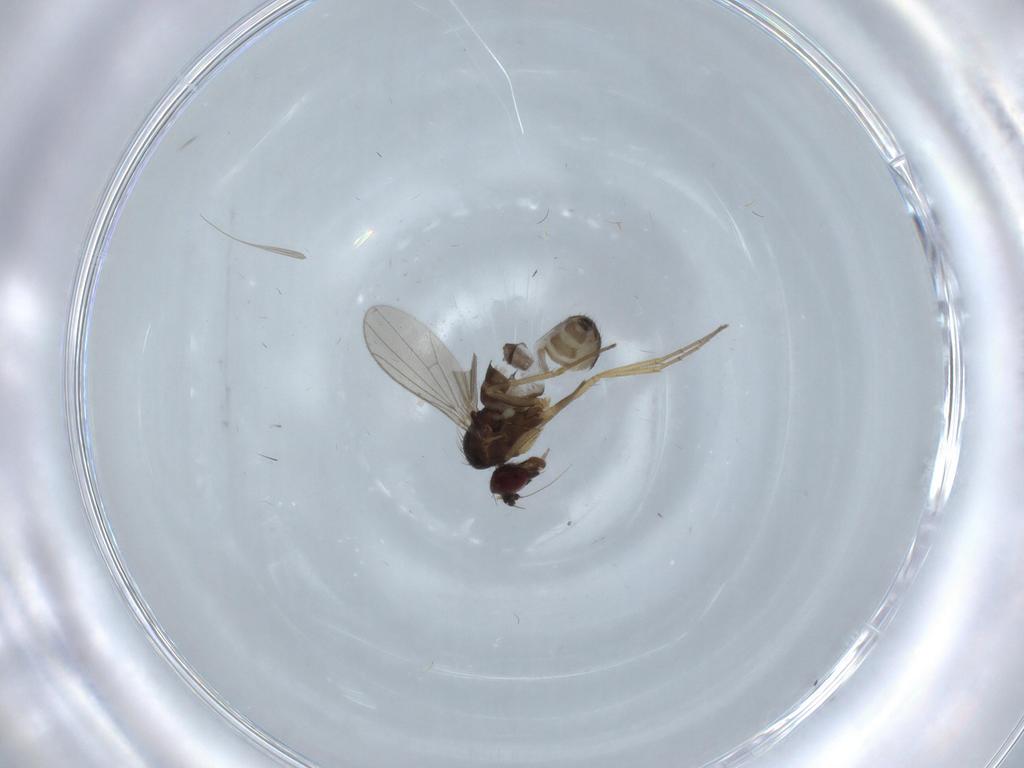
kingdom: Animalia
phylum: Arthropoda
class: Insecta
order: Diptera
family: Dolichopodidae
